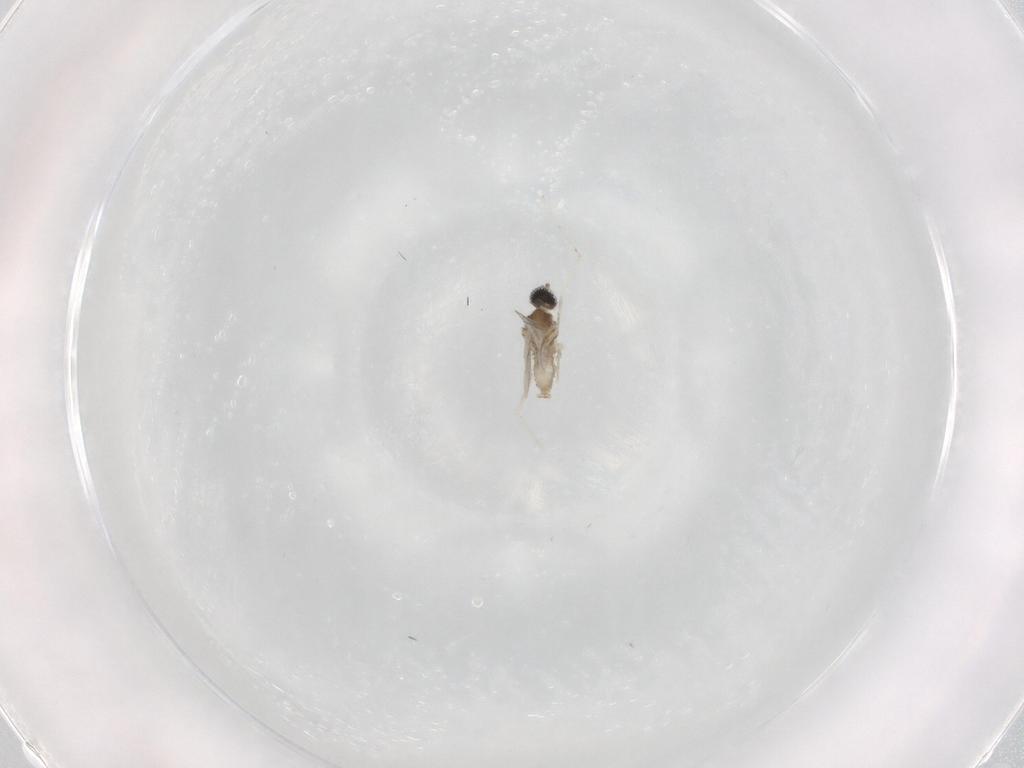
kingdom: Animalia
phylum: Arthropoda
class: Insecta
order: Diptera
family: Cecidomyiidae
